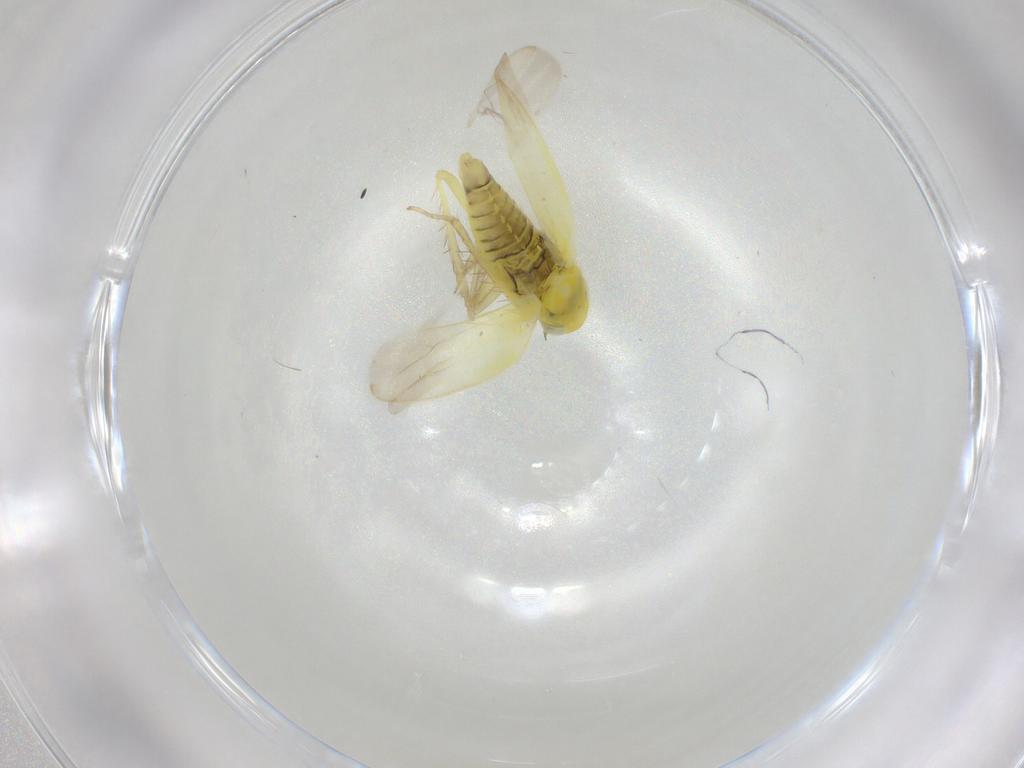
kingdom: Animalia
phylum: Arthropoda
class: Insecta
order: Hemiptera
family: Flatidae
